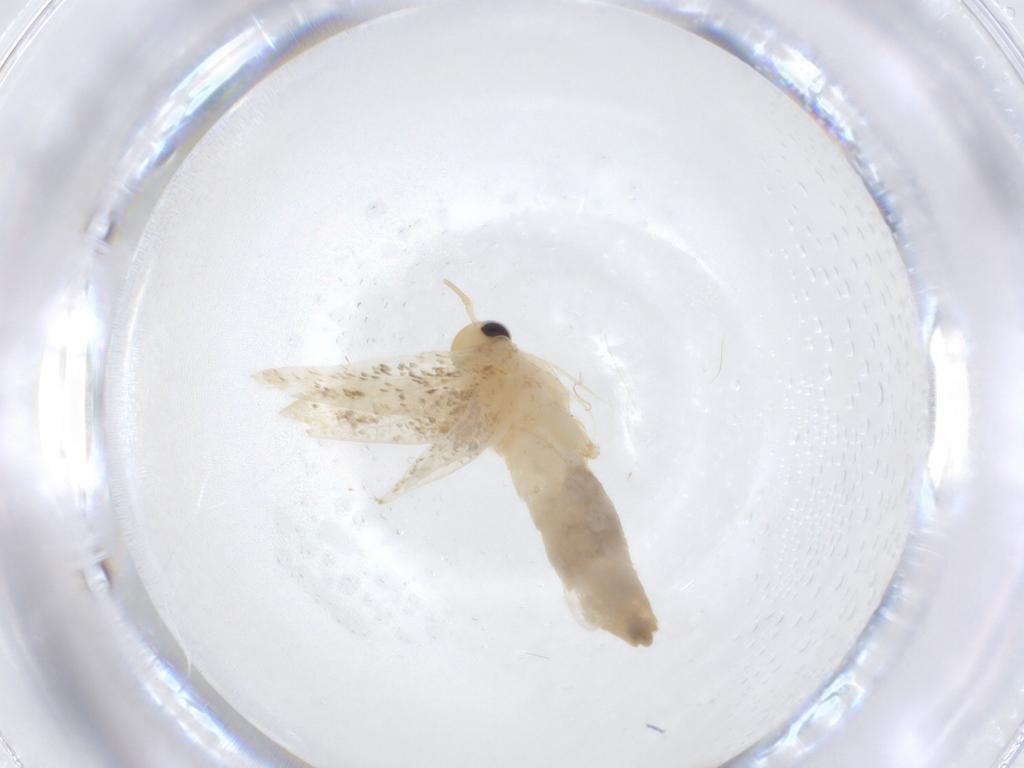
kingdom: Animalia
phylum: Arthropoda
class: Insecta
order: Lepidoptera
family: Erebidae
